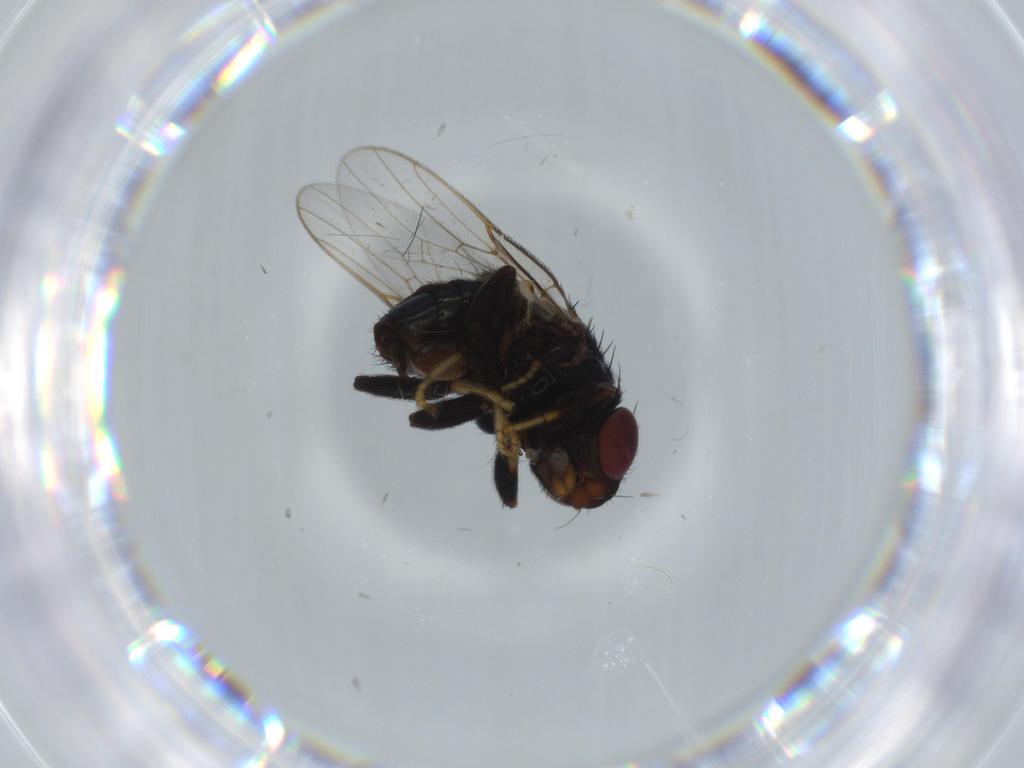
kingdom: Animalia
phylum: Arthropoda
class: Insecta
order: Diptera
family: Chloropidae
